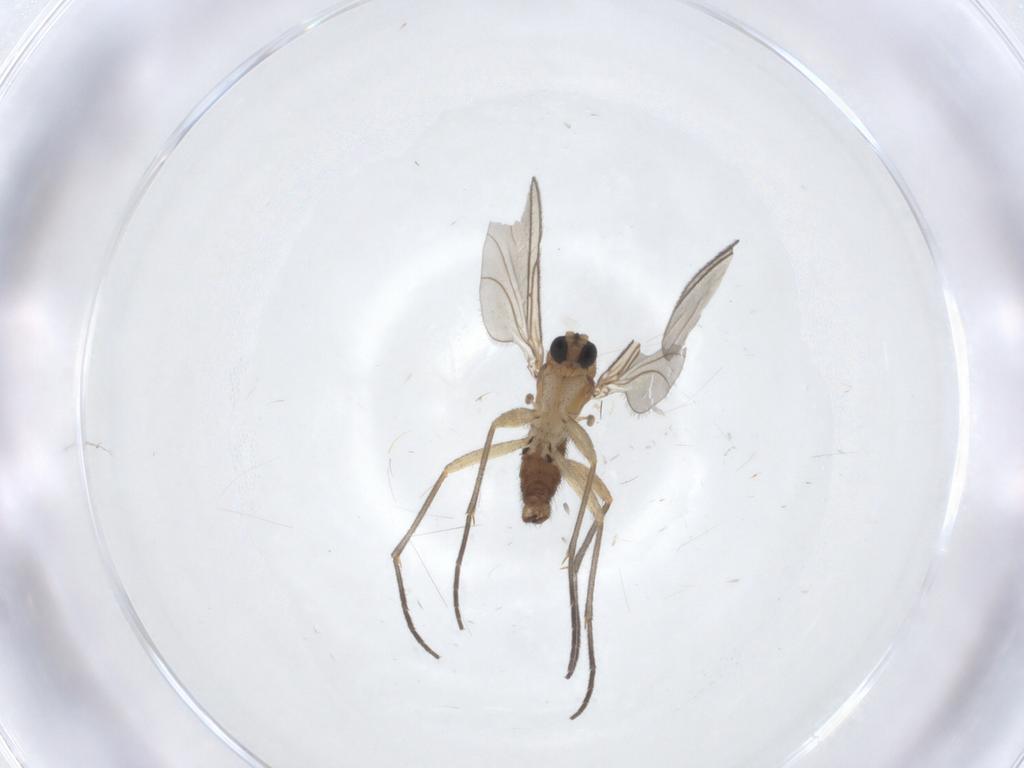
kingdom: Animalia
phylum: Arthropoda
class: Insecta
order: Diptera
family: Sciaridae
